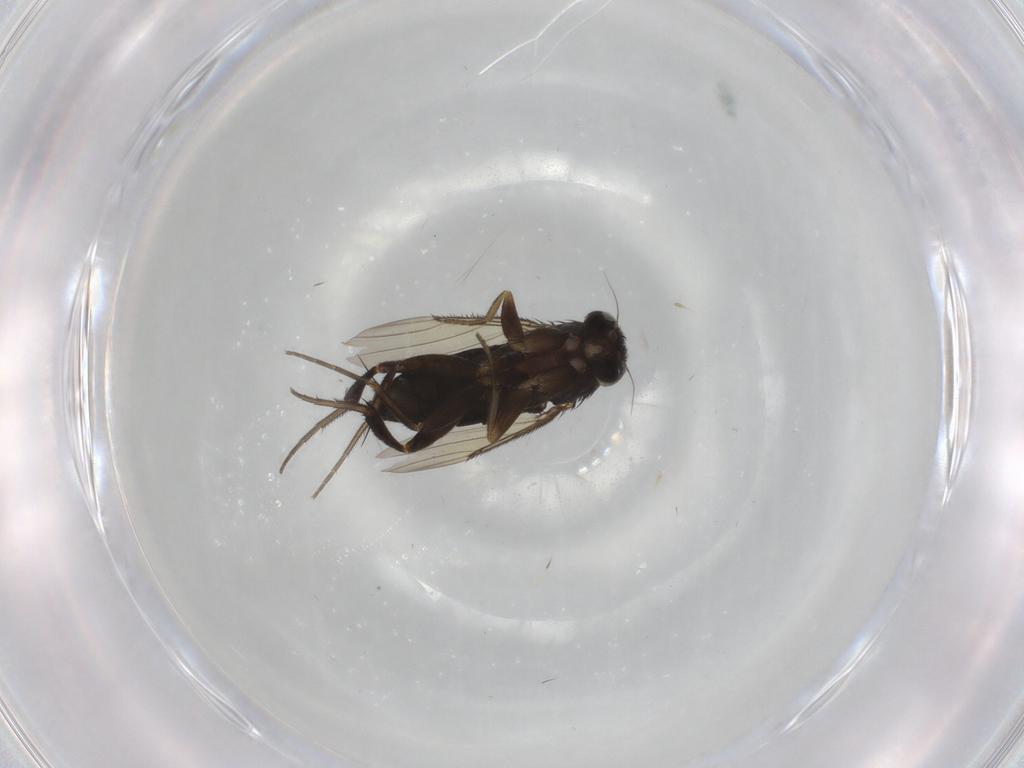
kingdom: Animalia
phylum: Arthropoda
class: Insecta
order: Diptera
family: Phoridae
